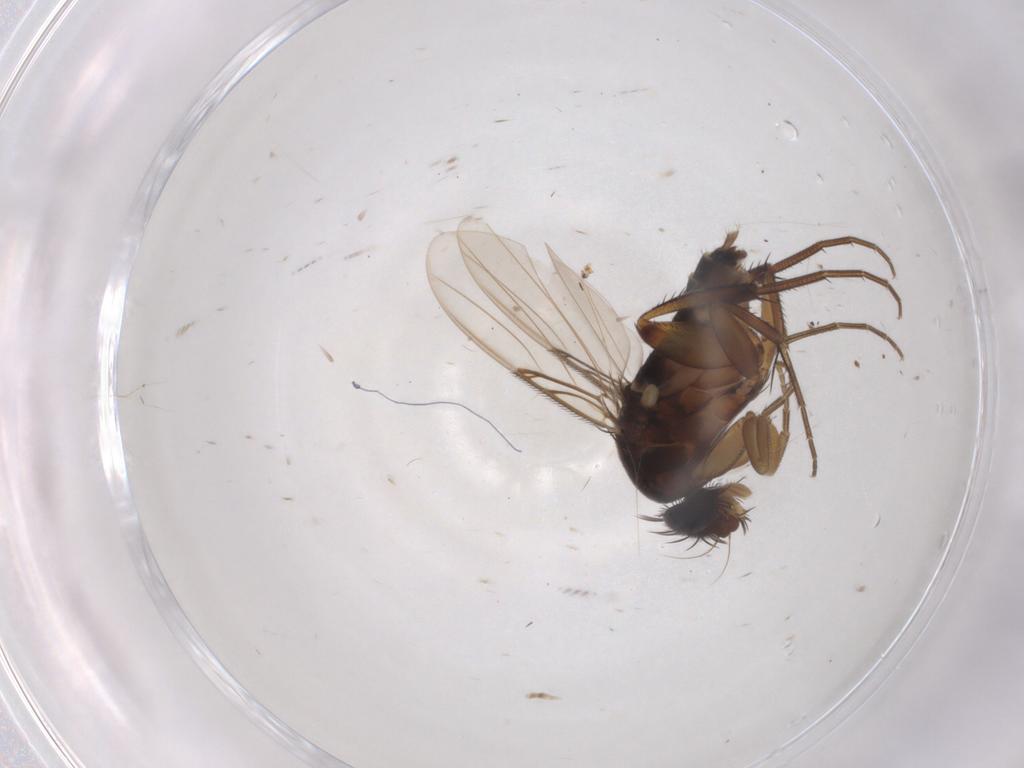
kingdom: Animalia
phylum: Arthropoda
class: Insecta
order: Diptera
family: Phoridae
